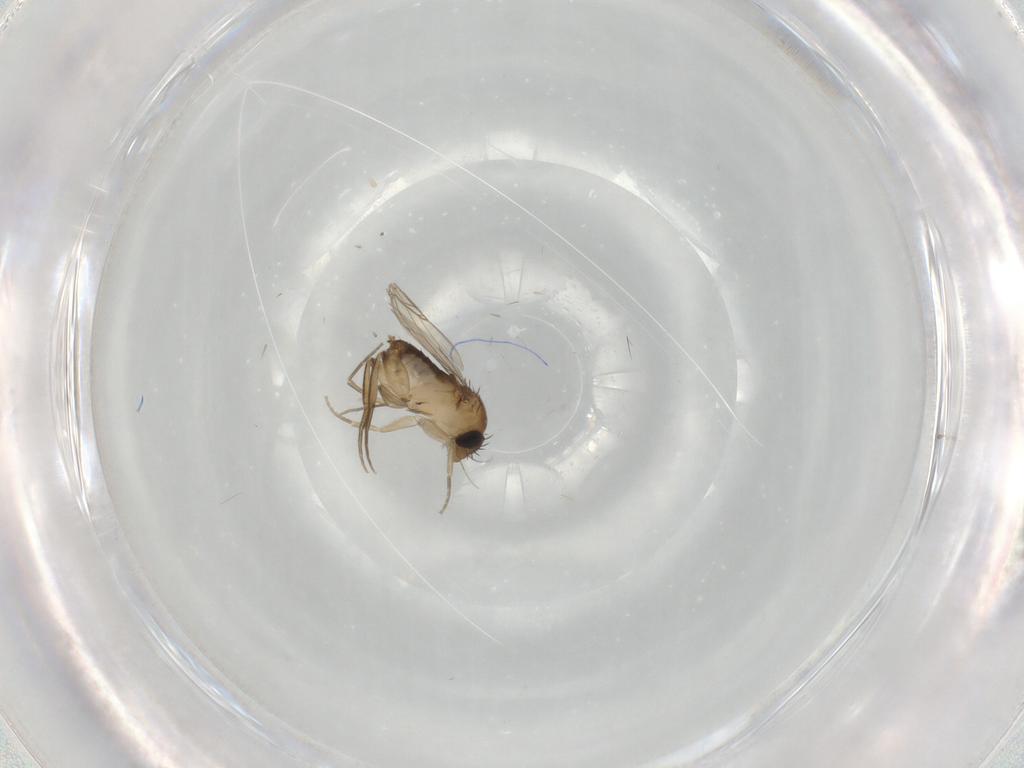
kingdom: Animalia
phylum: Arthropoda
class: Insecta
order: Diptera
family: Phoridae
